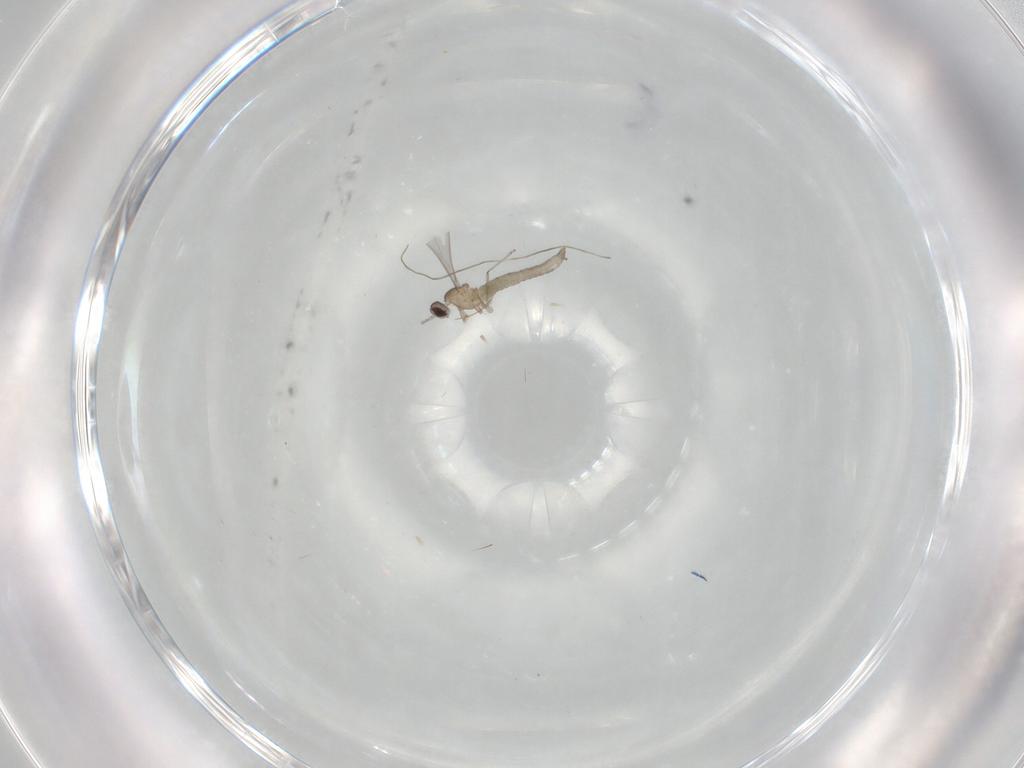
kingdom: Animalia
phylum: Arthropoda
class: Insecta
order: Diptera
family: Cecidomyiidae
